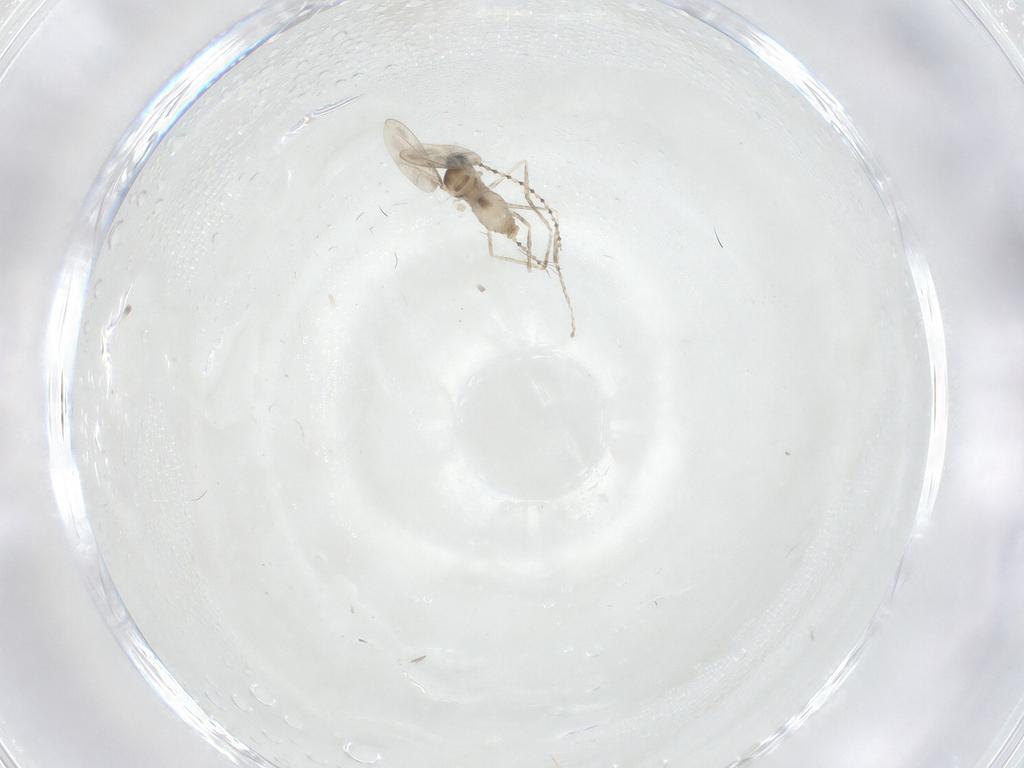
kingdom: Animalia
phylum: Arthropoda
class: Insecta
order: Diptera
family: Cecidomyiidae
